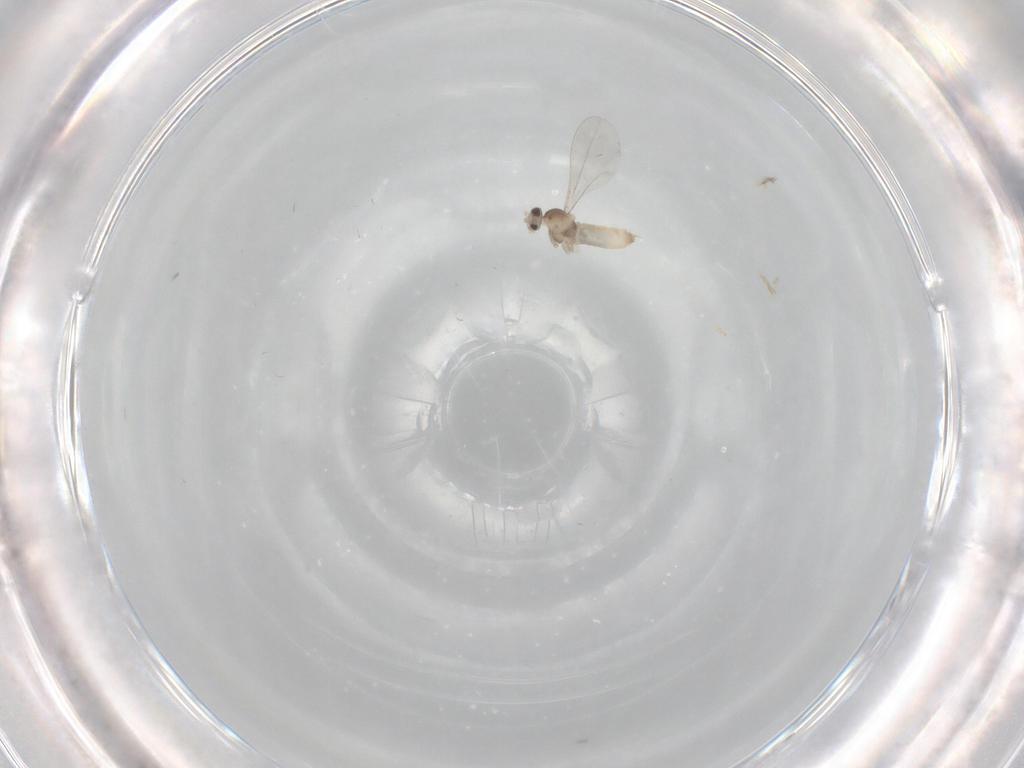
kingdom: Animalia
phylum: Arthropoda
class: Insecta
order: Diptera
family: Cecidomyiidae
